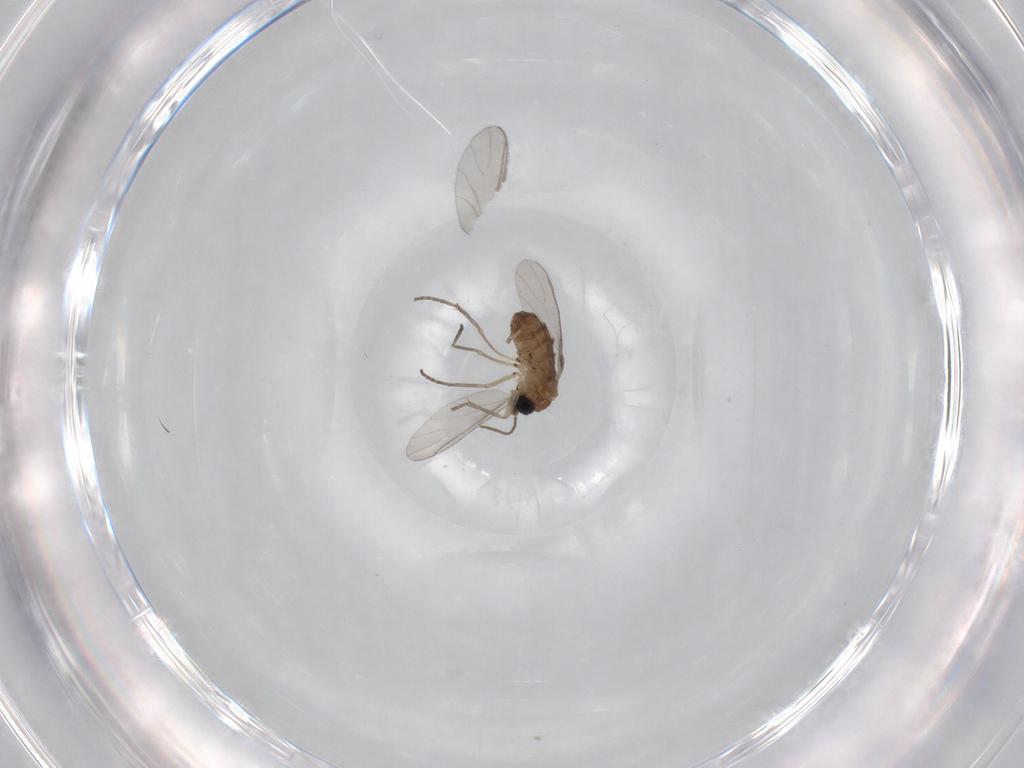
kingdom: Animalia
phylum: Arthropoda
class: Insecta
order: Diptera
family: Sciaridae
